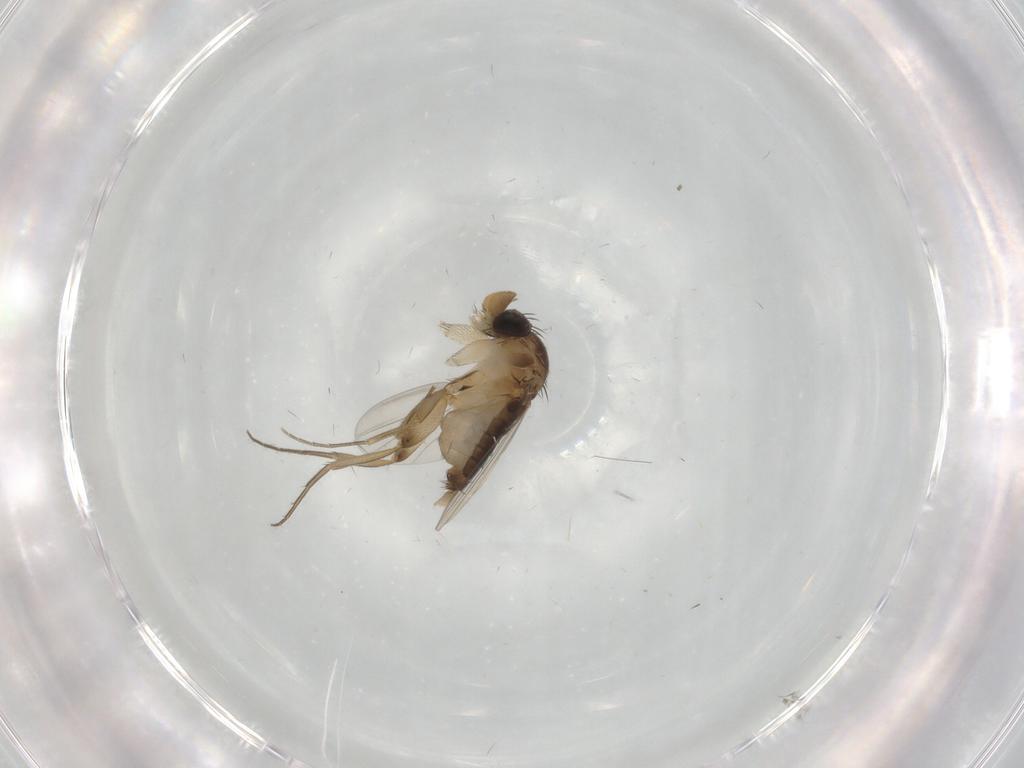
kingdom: Animalia
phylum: Arthropoda
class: Insecta
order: Diptera
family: Phoridae
